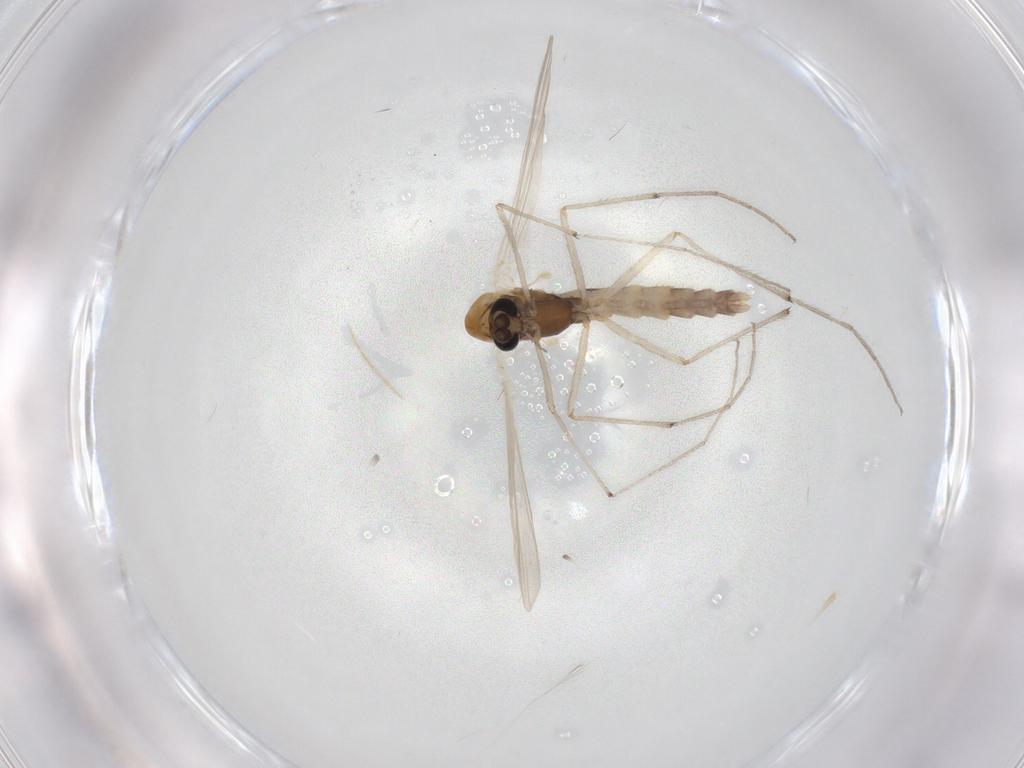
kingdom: Animalia
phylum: Arthropoda
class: Insecta
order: Diptera
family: Chironomidae
